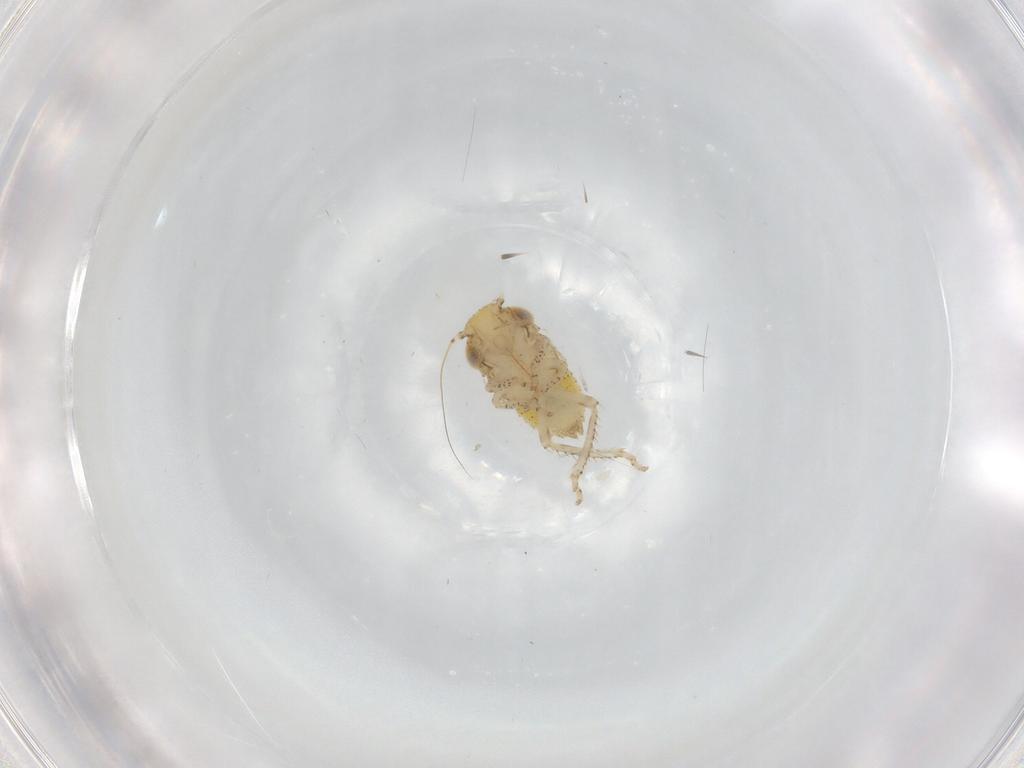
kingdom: Animalia
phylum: Arthropoda
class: Insecta
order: Hemiptera
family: Cicadellidae
